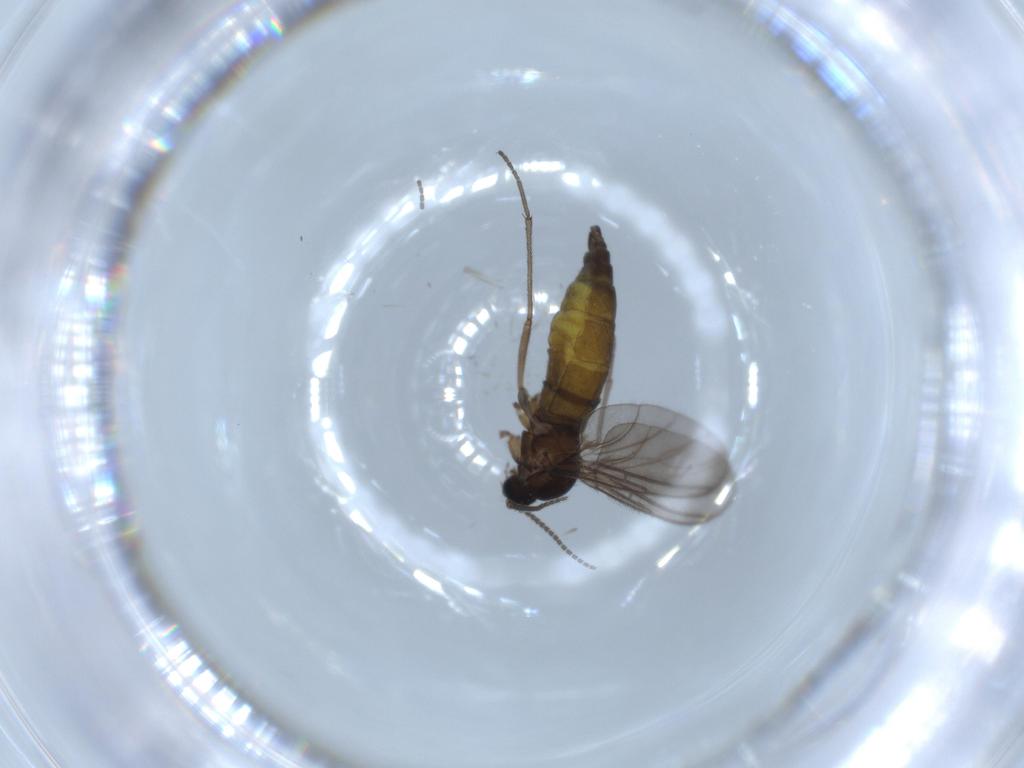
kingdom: Animalia
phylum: Arthropoda
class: Insecta
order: Diptera
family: Sciaridae
